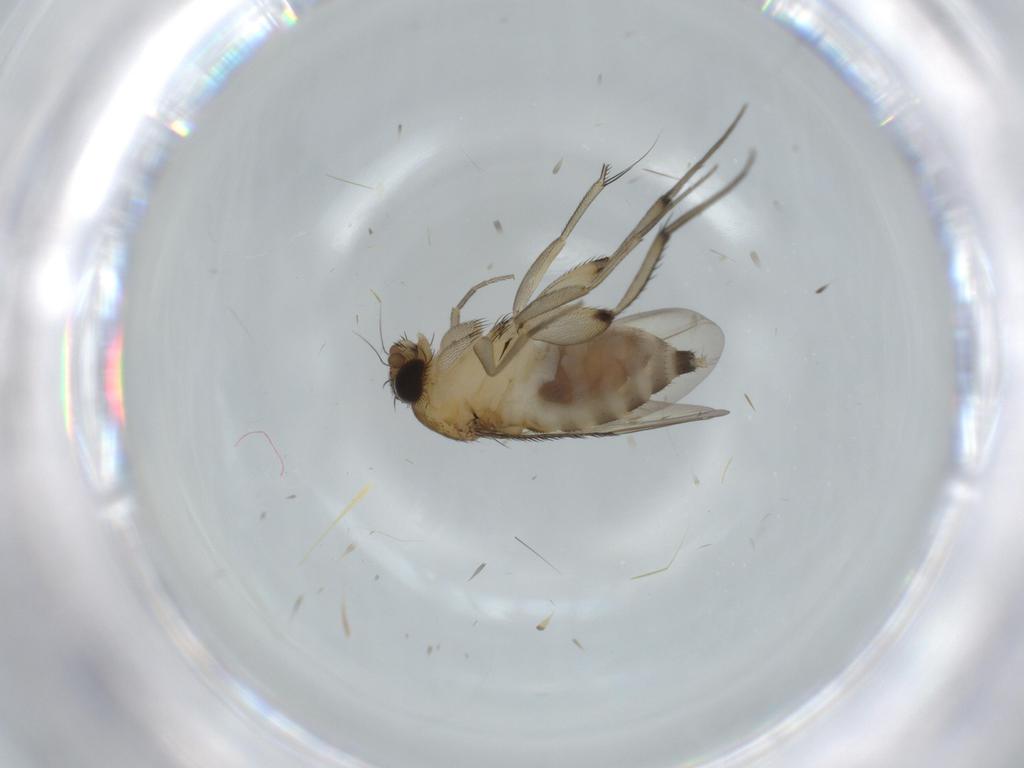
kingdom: Animalia
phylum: Arthropoda
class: Insecta
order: Diptera
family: Phoridae
